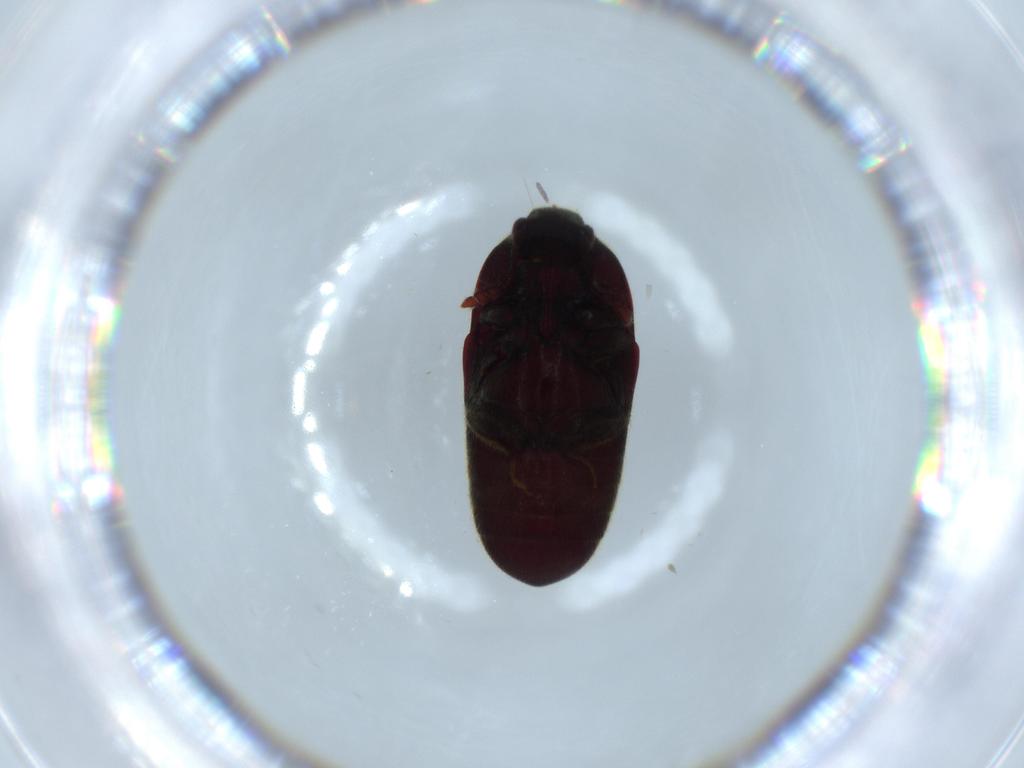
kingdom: Animalia
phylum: Arthropoda
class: Insecta
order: Coleoptera
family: Throscidae
